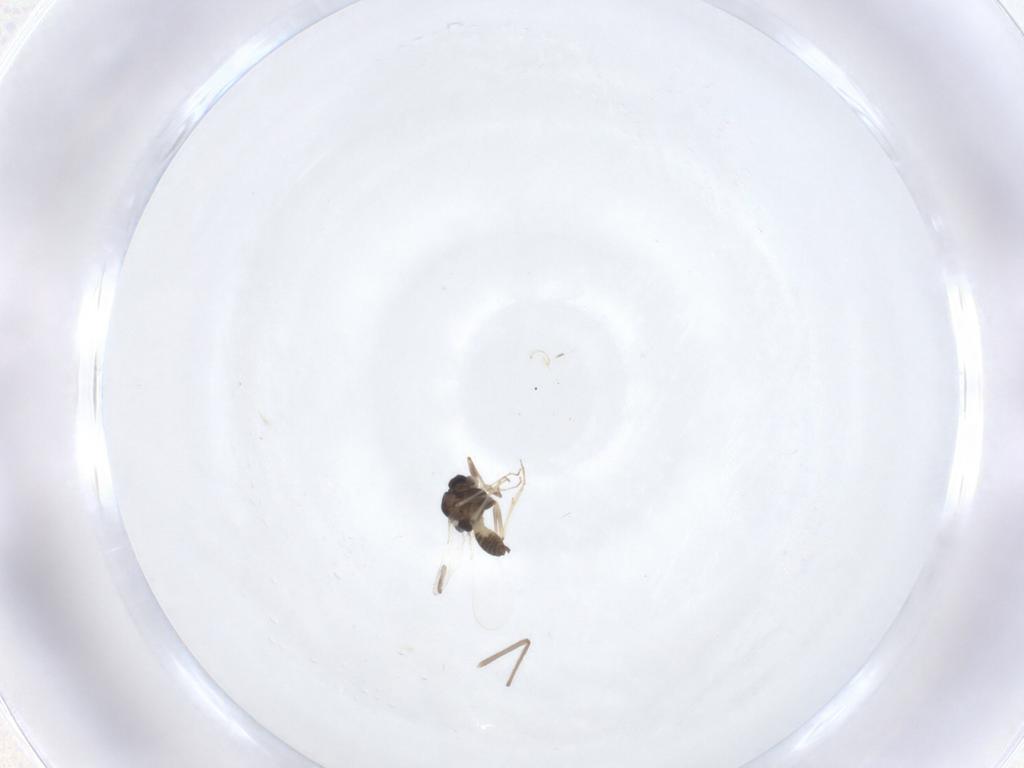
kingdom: Animalia
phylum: Arthropoda
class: Insecta
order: Diptera
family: Chironomidae
